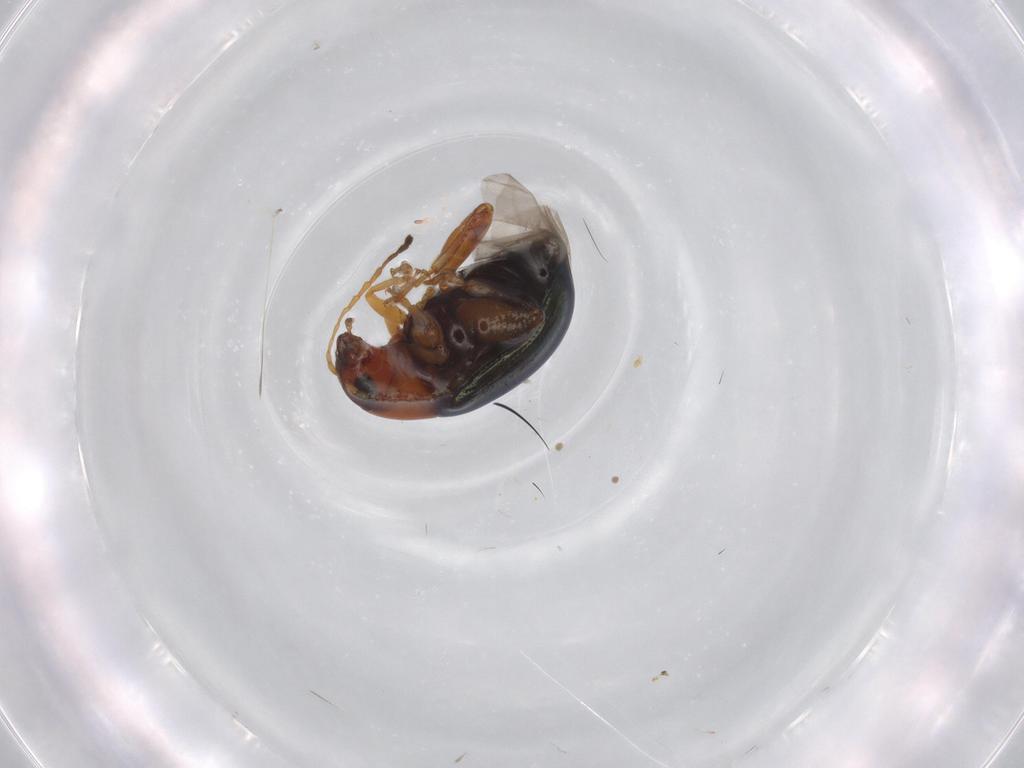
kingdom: Animalia
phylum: Arthropoda
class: Insecta
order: Coleoptera
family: Chrysomelidae
